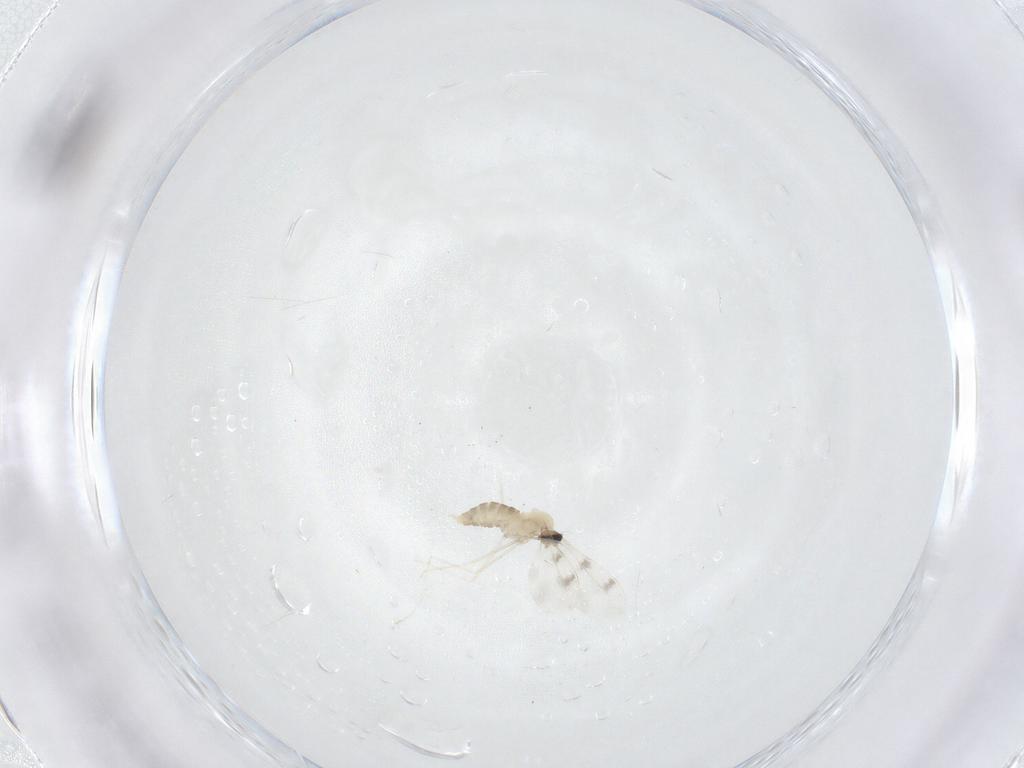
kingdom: Animalia
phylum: Arthropoda
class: Insecta
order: Diptera
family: Cecidomyiidae
